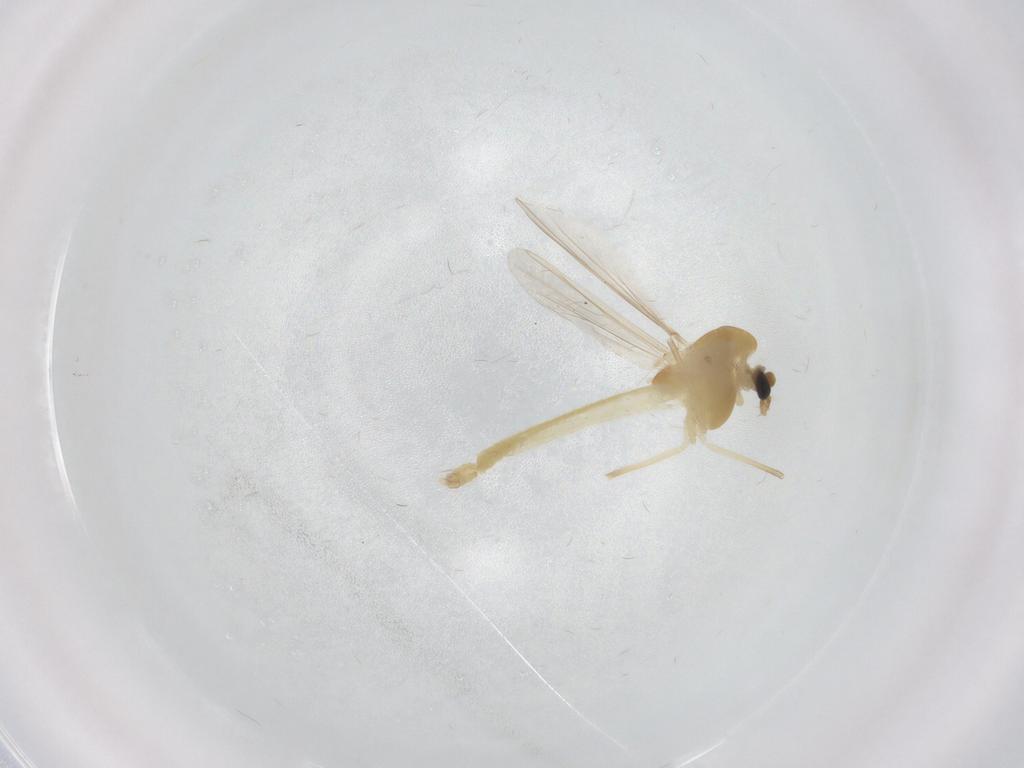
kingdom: Animalia
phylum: Arthropoda
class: Insecta
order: Diptera
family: Chironomidae
